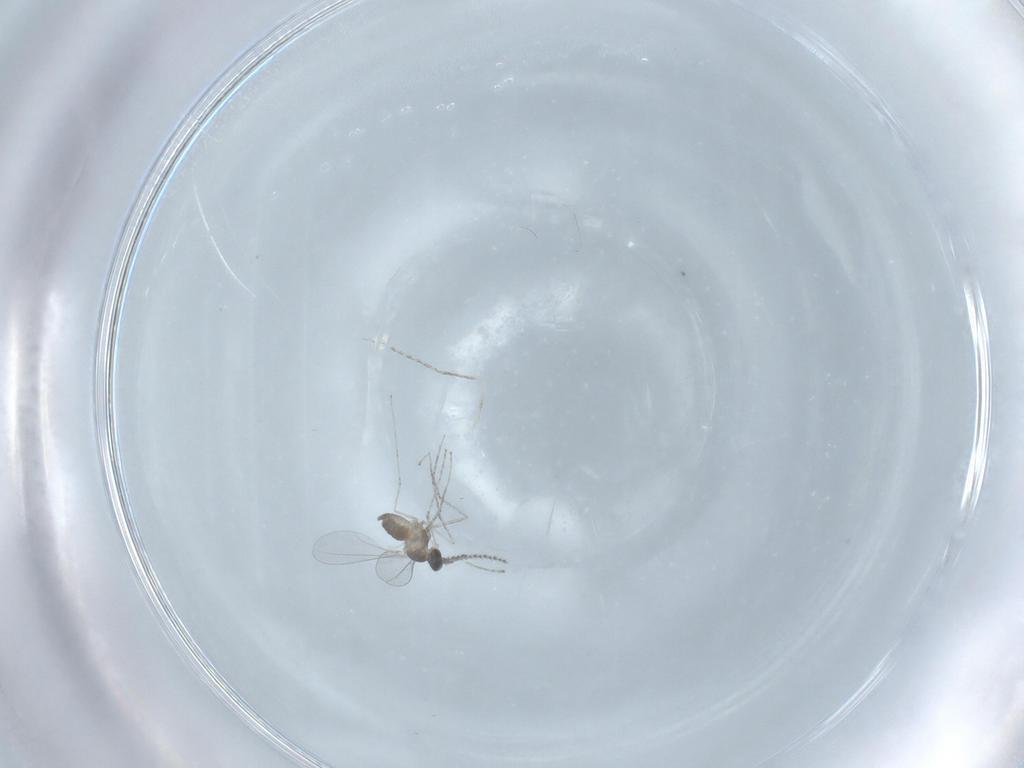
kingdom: Animalia
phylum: Arthropoda
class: Insecta
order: Diptera
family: Cecidomyiidae
